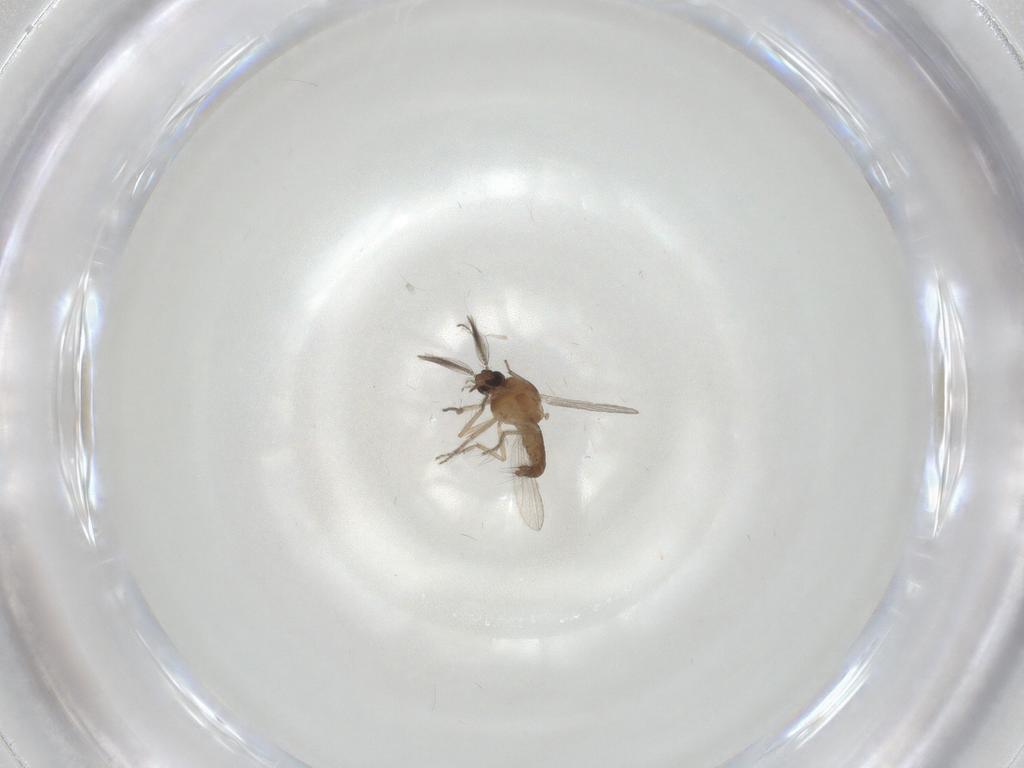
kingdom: Animalia
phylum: Arthropoda
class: Insecta
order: Diptera
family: Ceratopogonidae
